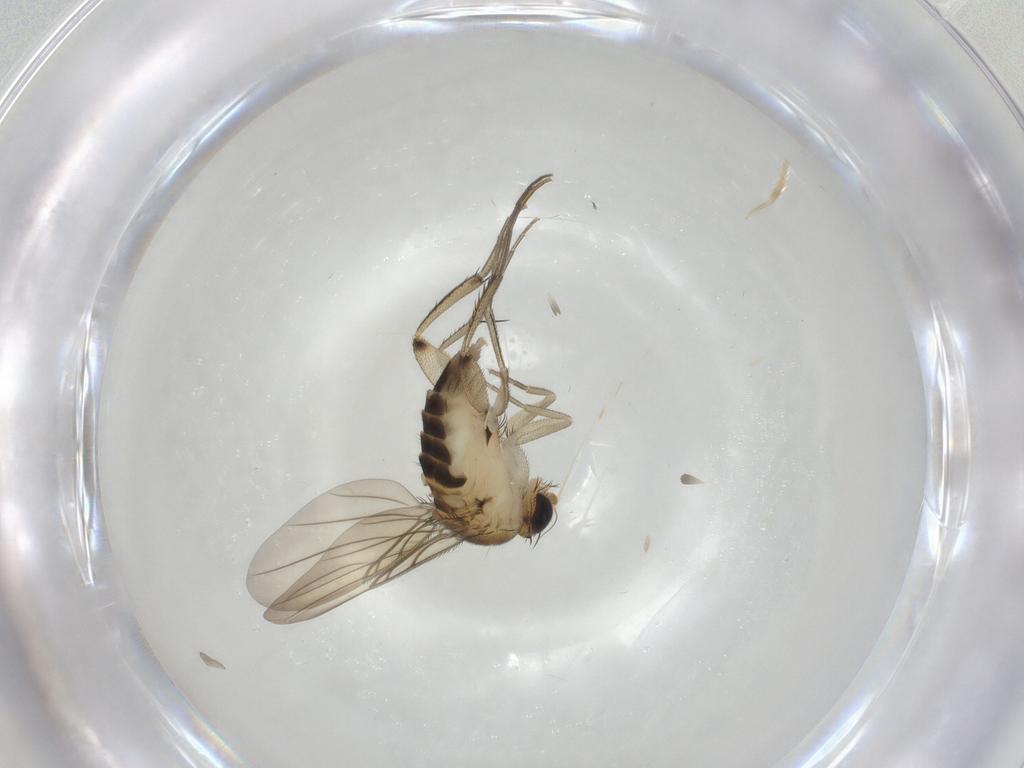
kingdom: Animalia
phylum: Arthropoda
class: Insecta
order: Diptera
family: Phoridae
